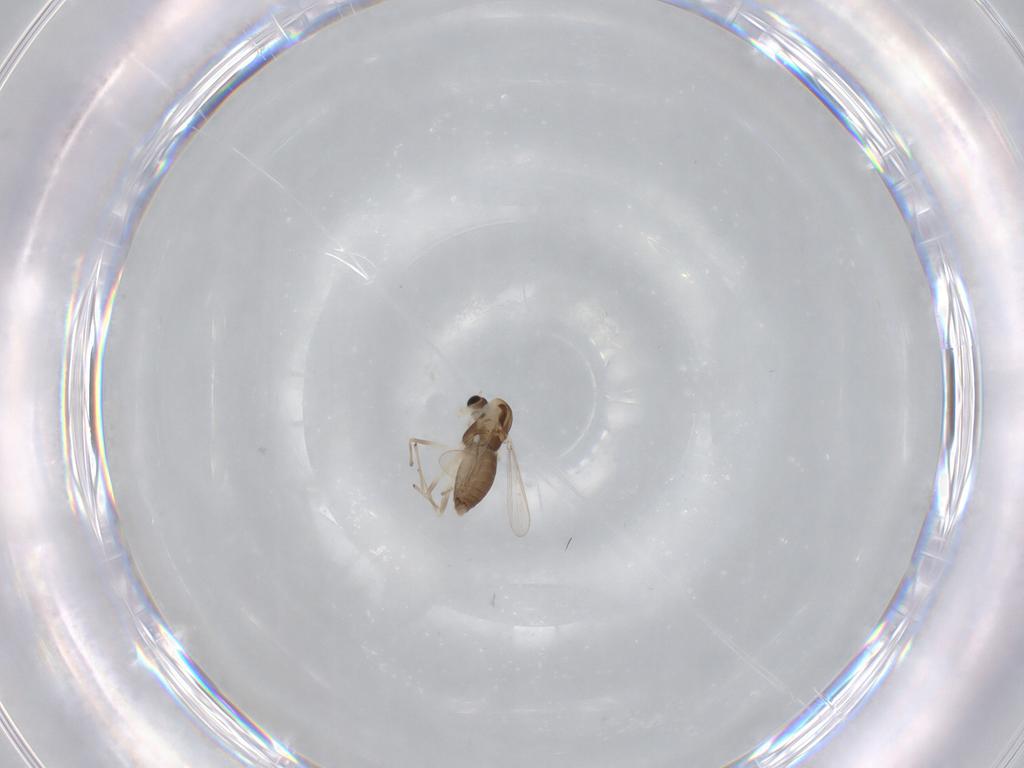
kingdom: Animalia
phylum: Arthropoda
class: Insecta
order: Diptera
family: Chironomidae
